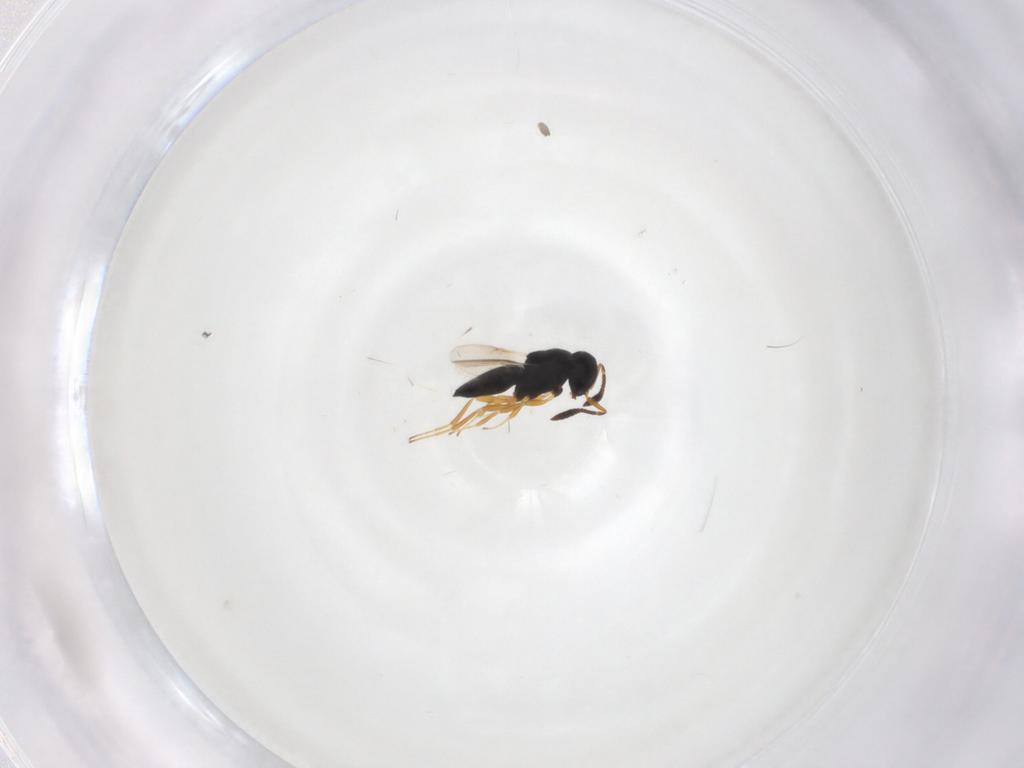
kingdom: Animalia
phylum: Arthropoda
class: Insecta
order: Hymenoptera
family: Scelionidae
